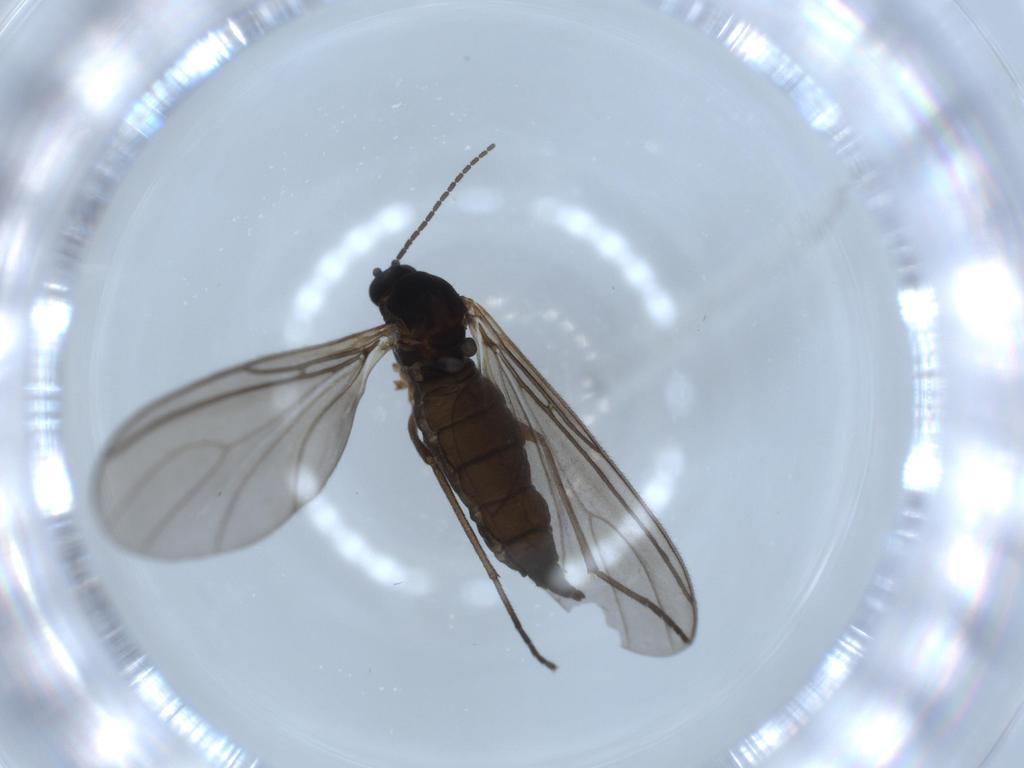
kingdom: Animalia
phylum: Arthropoda
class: Insecta
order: Diptera
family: Sciaridae
